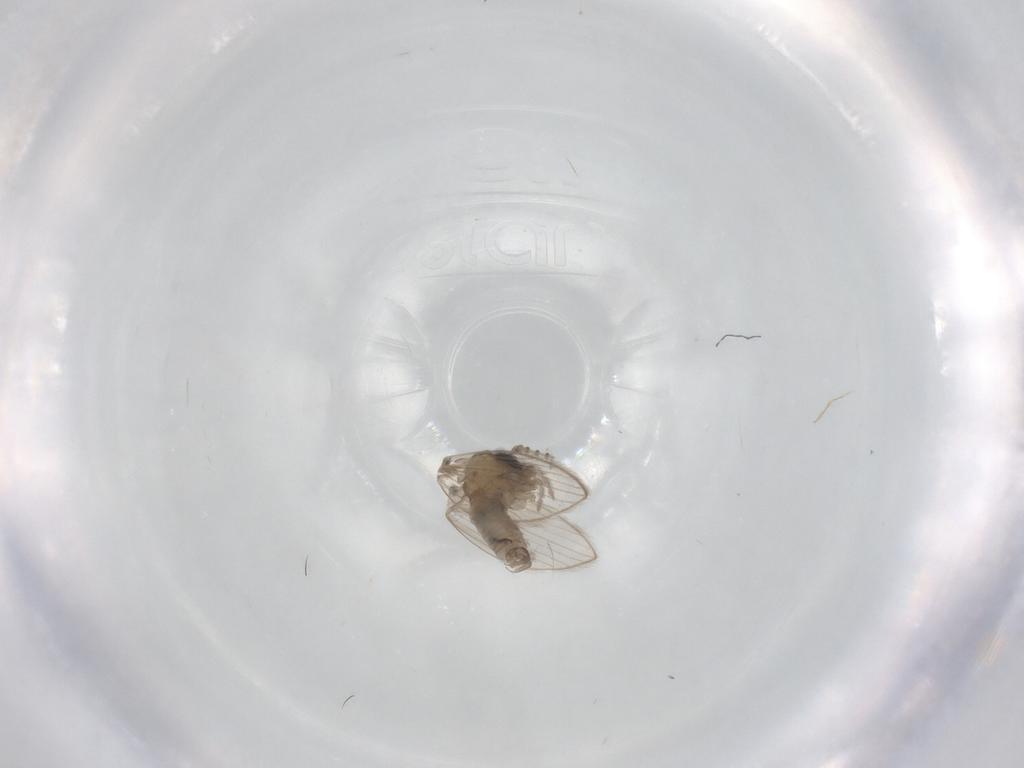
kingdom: Animalia
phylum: Arthropoda
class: Insecta
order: Diptera
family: Psychodidae
